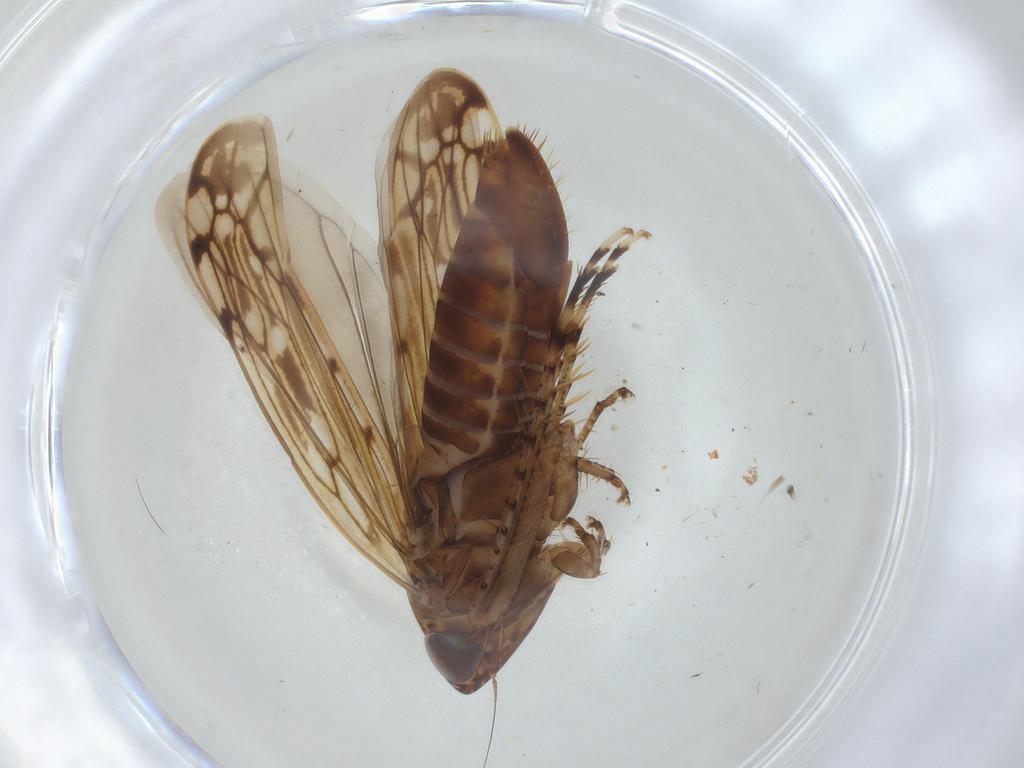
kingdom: Animalia
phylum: Arthropoda
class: Insecta
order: Hemiptera
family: Cicadellidae
